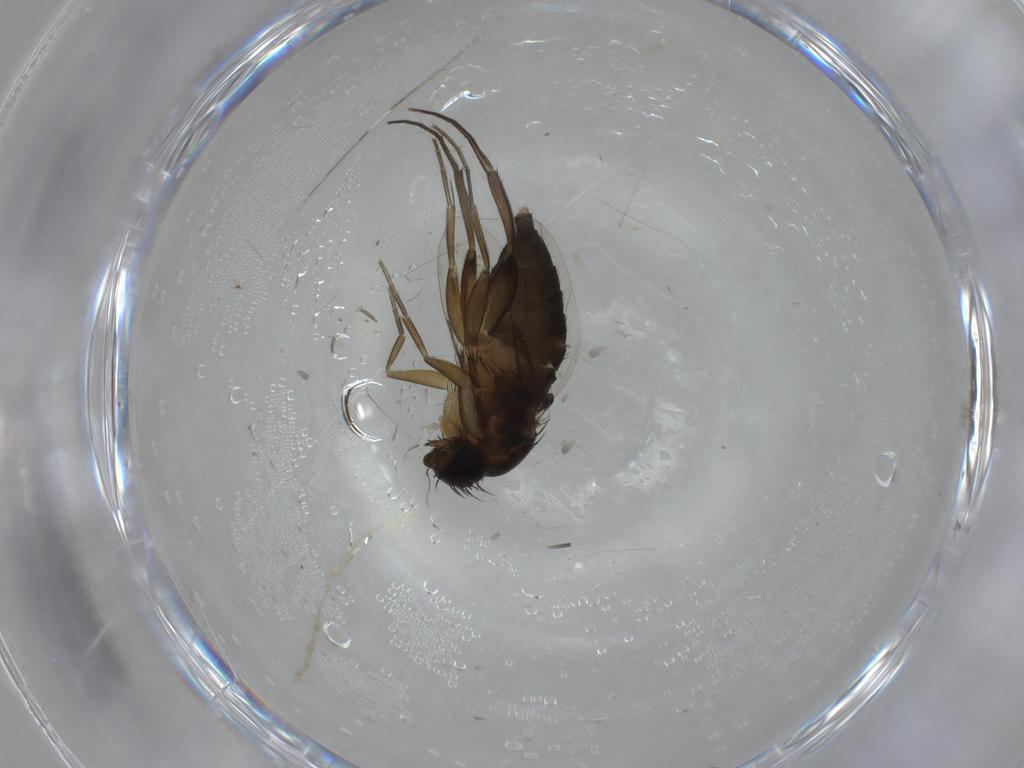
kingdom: Animalia
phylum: Arthropoda
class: Insecta
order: Diptera
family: Phoridae
